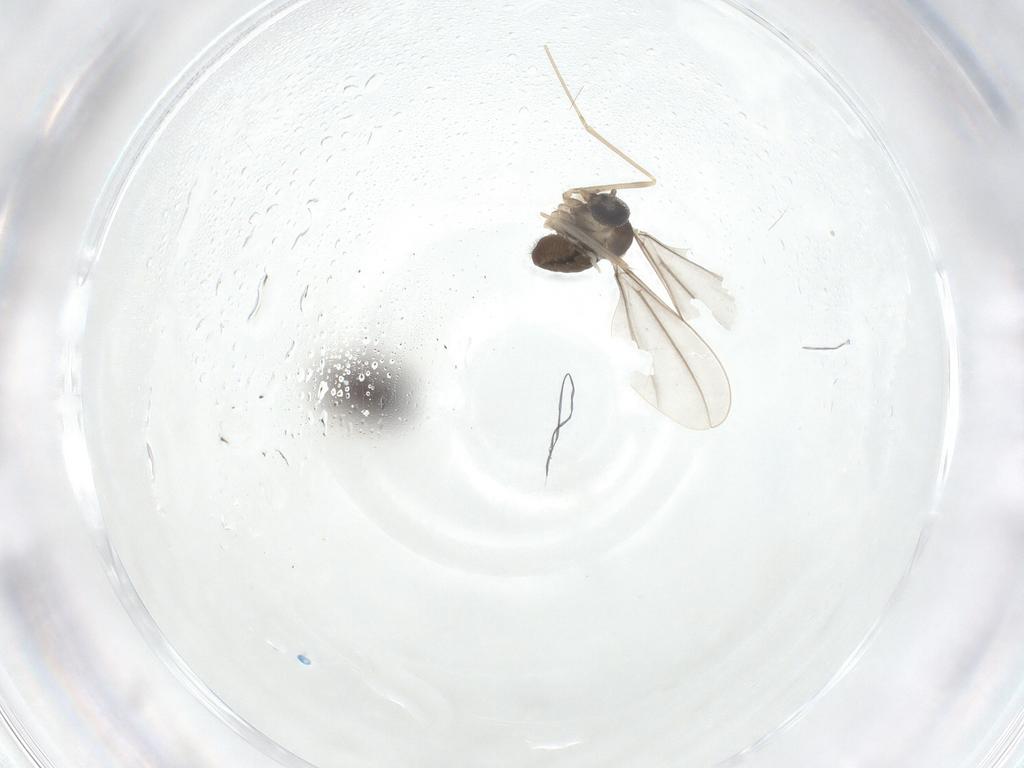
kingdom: Animalia
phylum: Arthropoda
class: Insecta
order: Diptera
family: Cecidomyiidae
